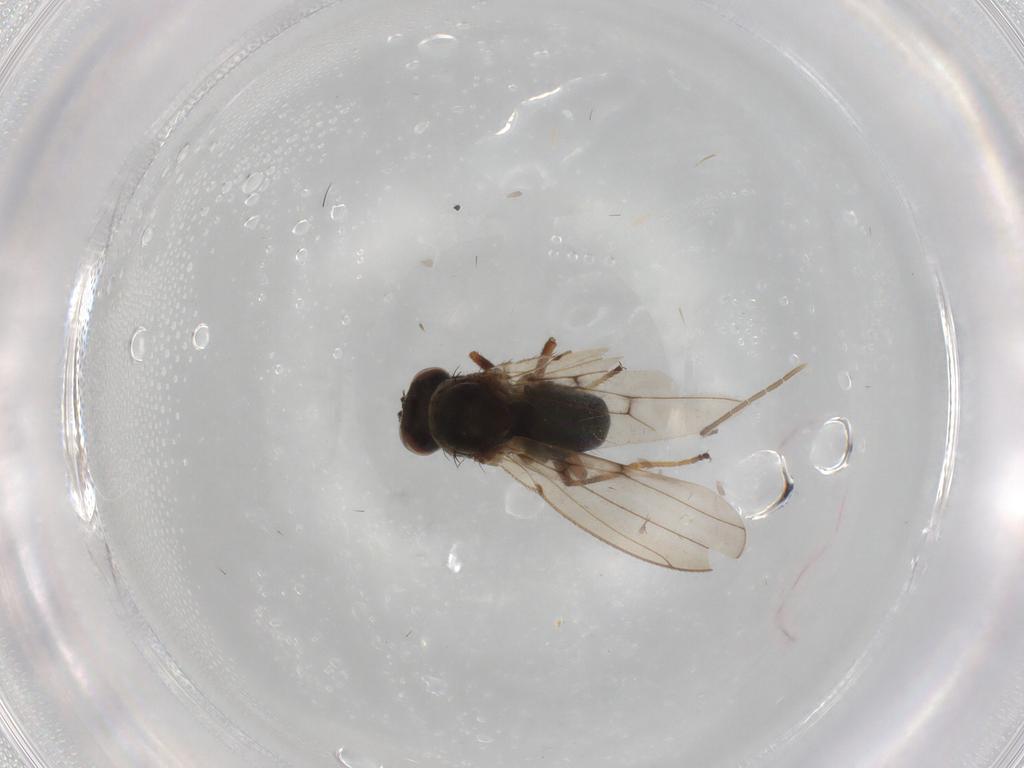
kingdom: Animalia
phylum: Arthropoda
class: Insecta
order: Diptera
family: Ephydridae
